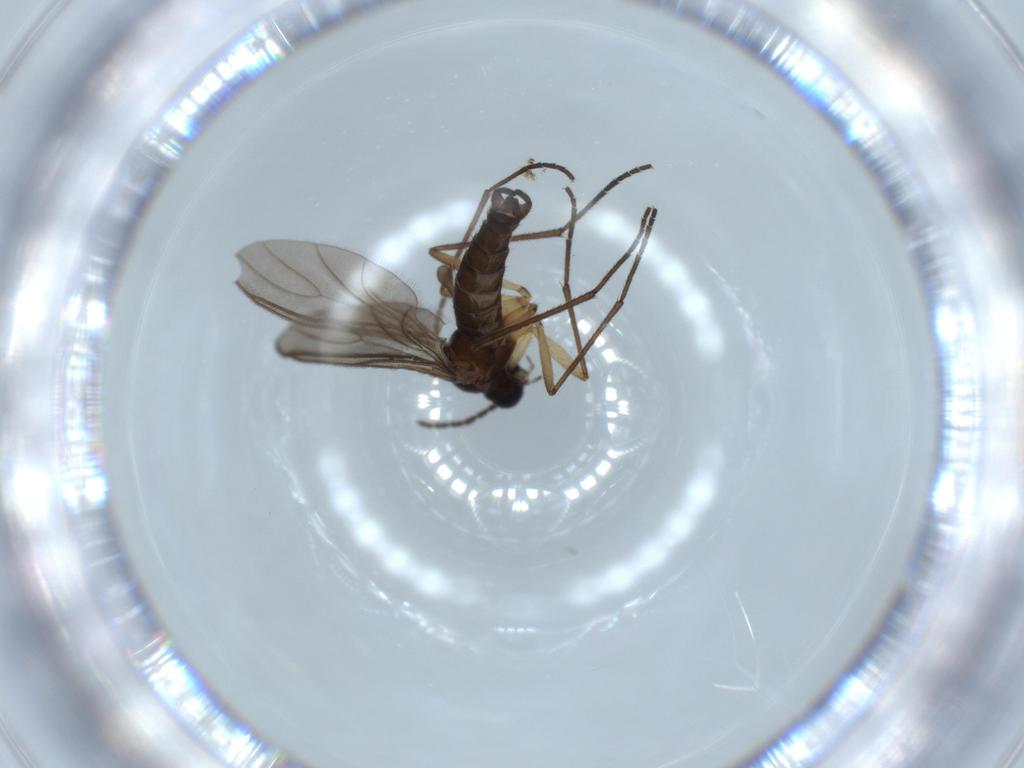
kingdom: Animalia
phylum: Arthropoda
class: Insecta
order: Diptera
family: Sciaridae
